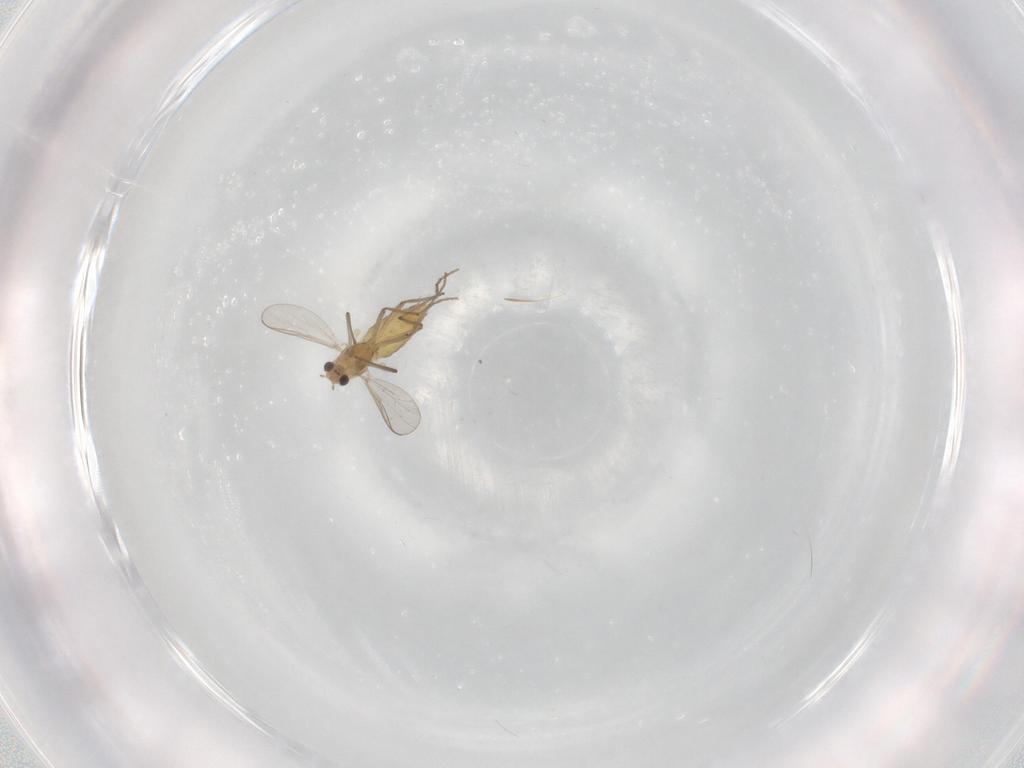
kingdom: Animalia
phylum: Arthropoda
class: Insecta
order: Diptera
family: Chironomidae
